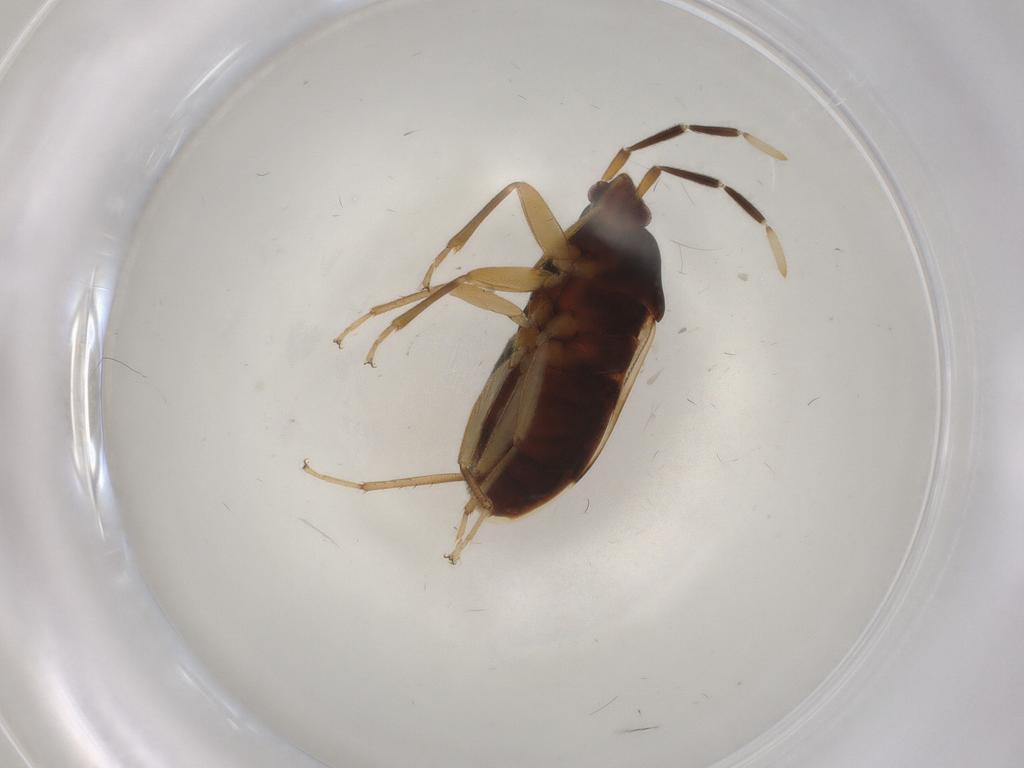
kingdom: Animalia
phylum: Arthropoda
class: Insecta
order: Hemiptera
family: Rhyparochromidae
